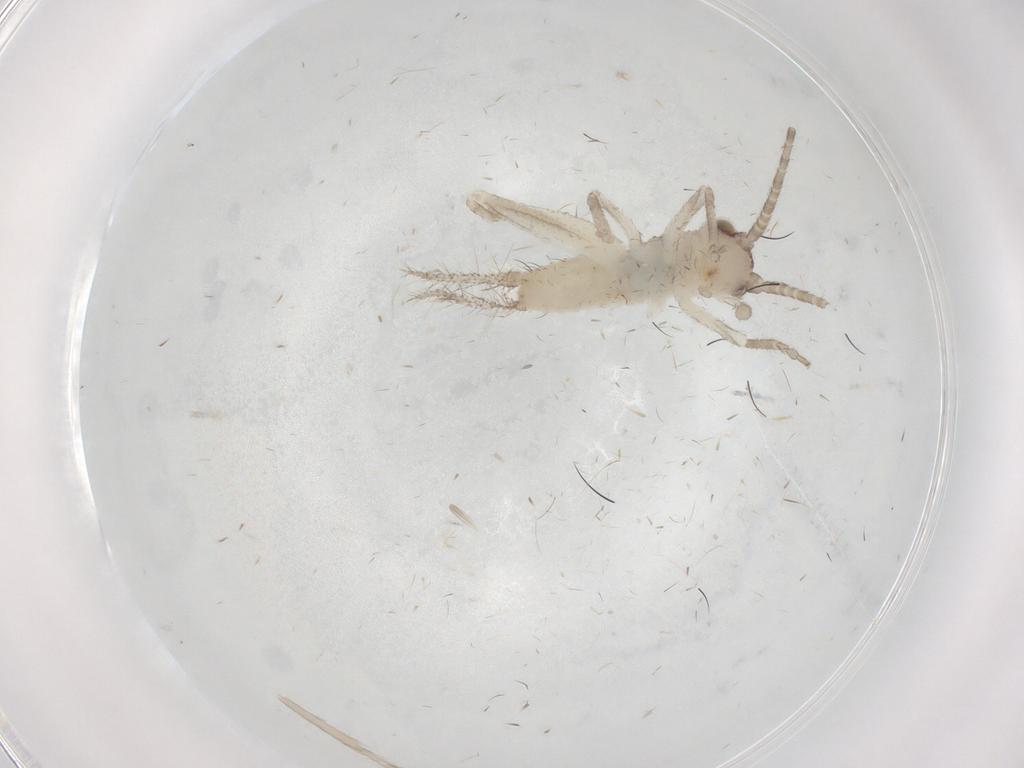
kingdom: Animalia
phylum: Arthropoda
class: Insecta
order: Orthoptera
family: Gryllidae
